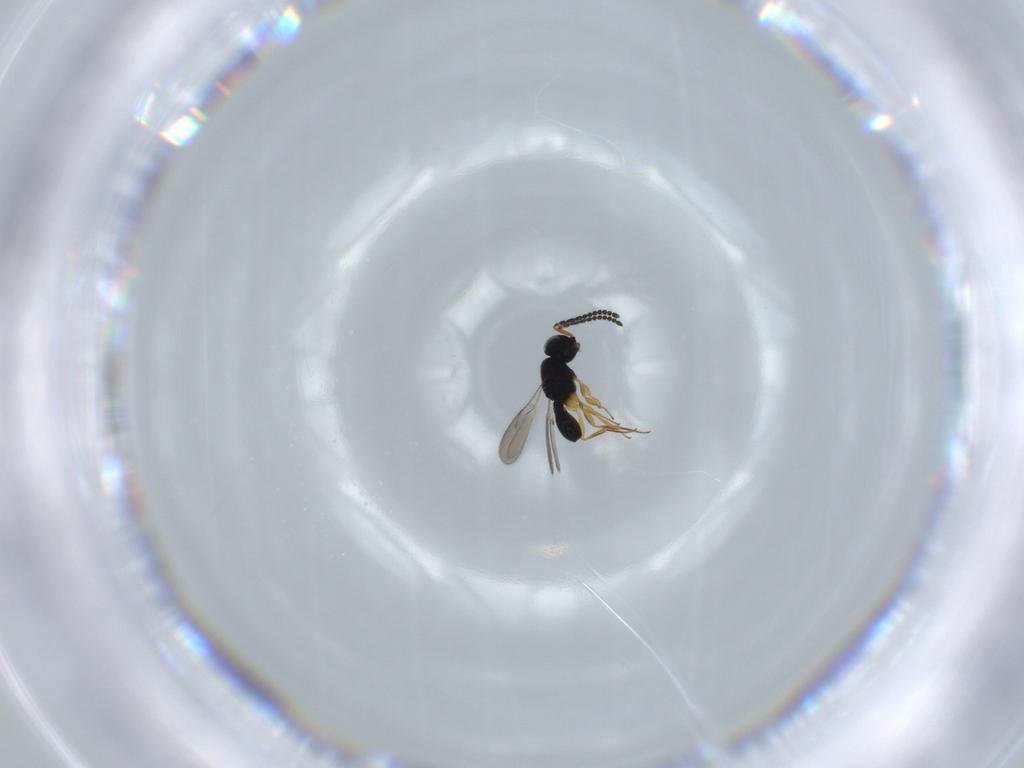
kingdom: Animalia
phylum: Arthropoda
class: Insecta
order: Hymenoptera
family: Scelionidae
